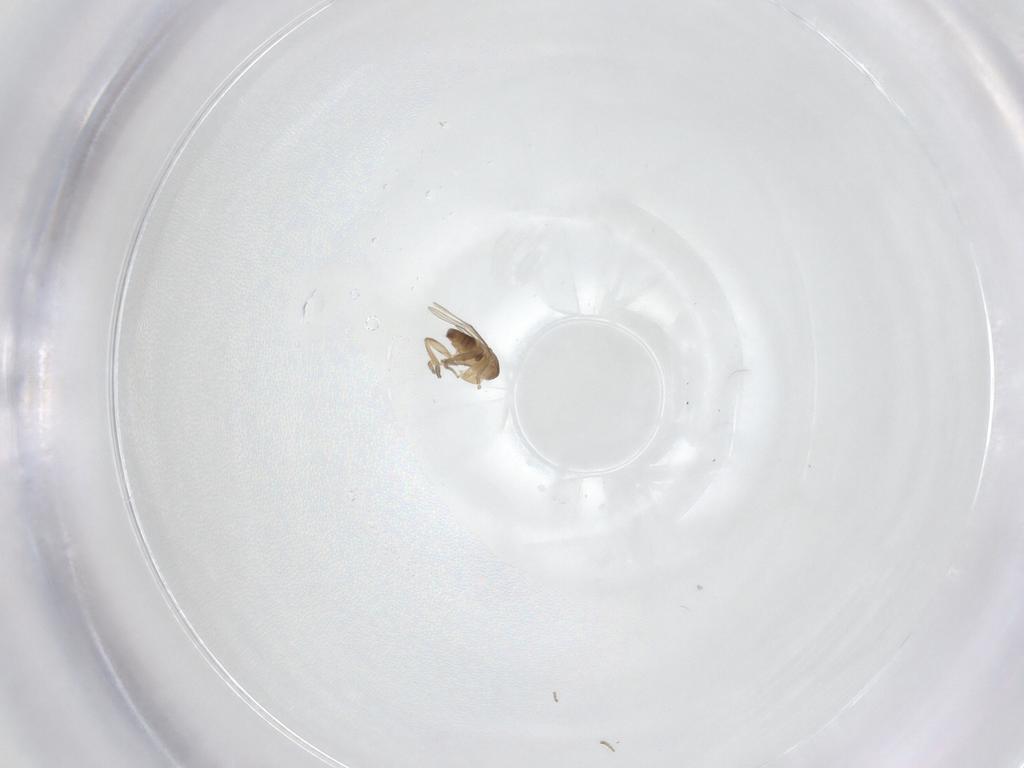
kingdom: Animalia
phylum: Arthropoda
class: Insecta
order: Diptera
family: Phoridae
